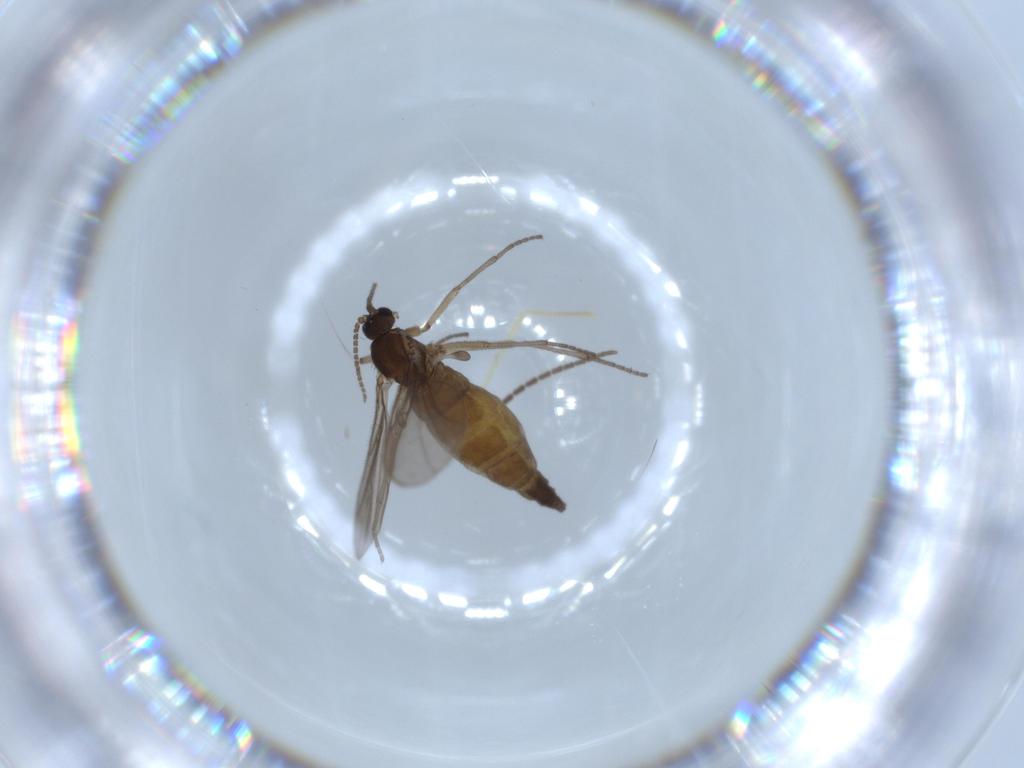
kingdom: Animalia
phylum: Arthropoda
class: Insecta
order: Diptera
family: Sciaridae
